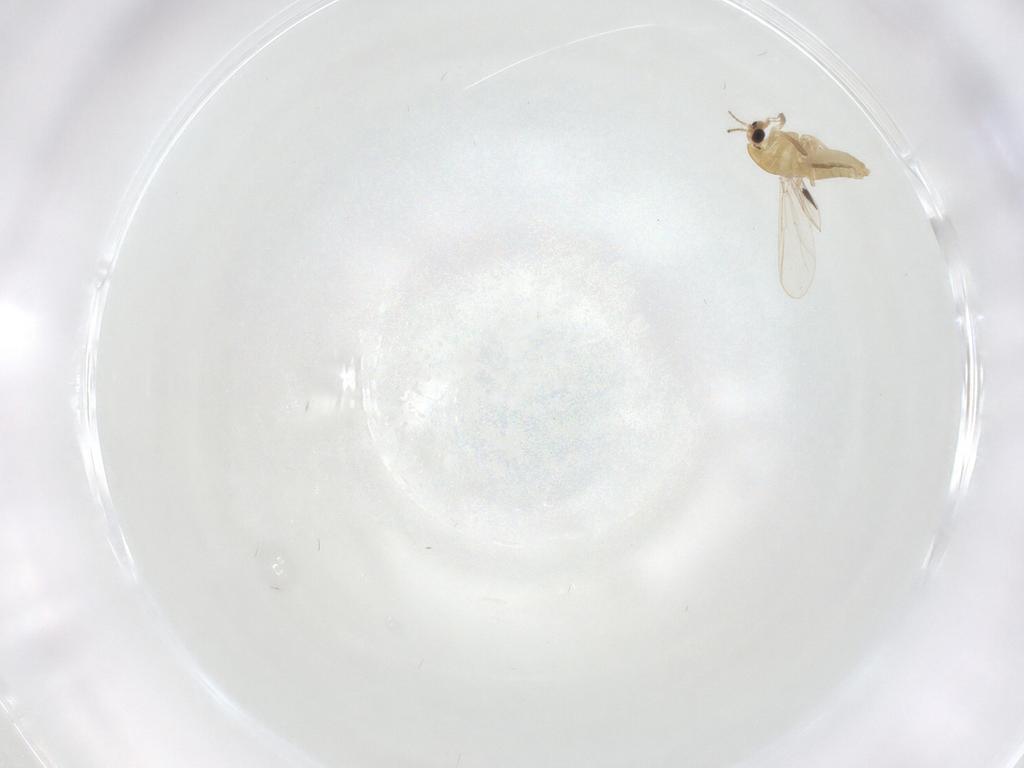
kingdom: Animalia
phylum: Arthropoda
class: Insecta
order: Diptera
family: Chironomidae
